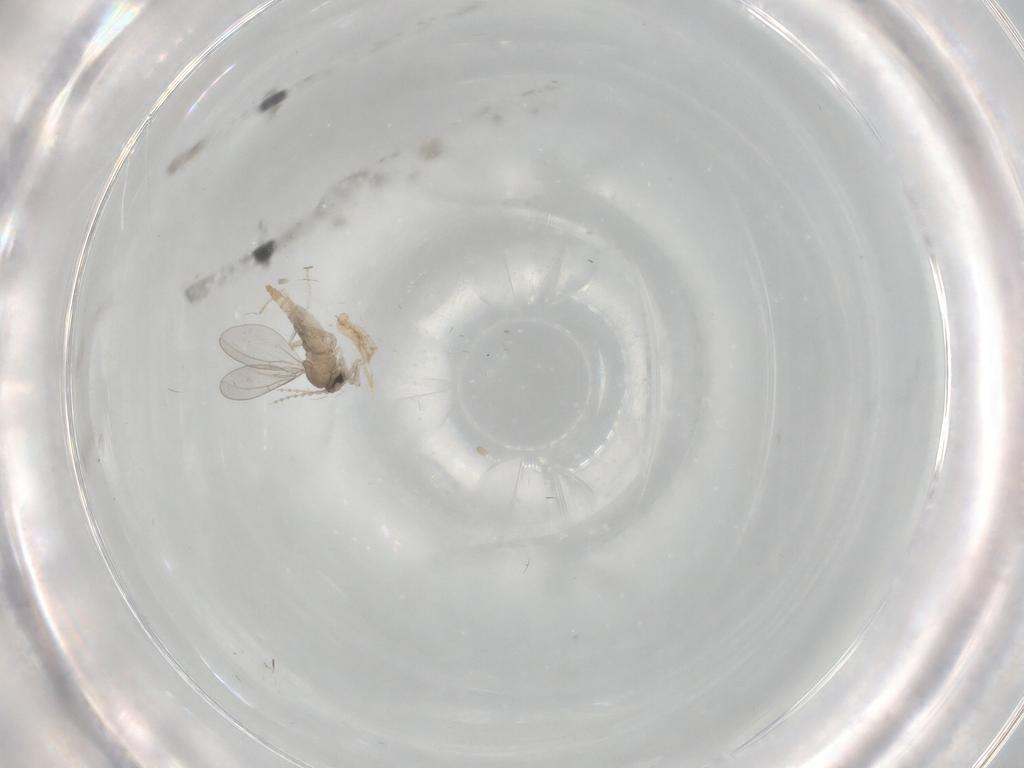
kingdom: Animalia
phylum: Arthropoda
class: Insecta
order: Diptera
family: Cecidomyiidae
